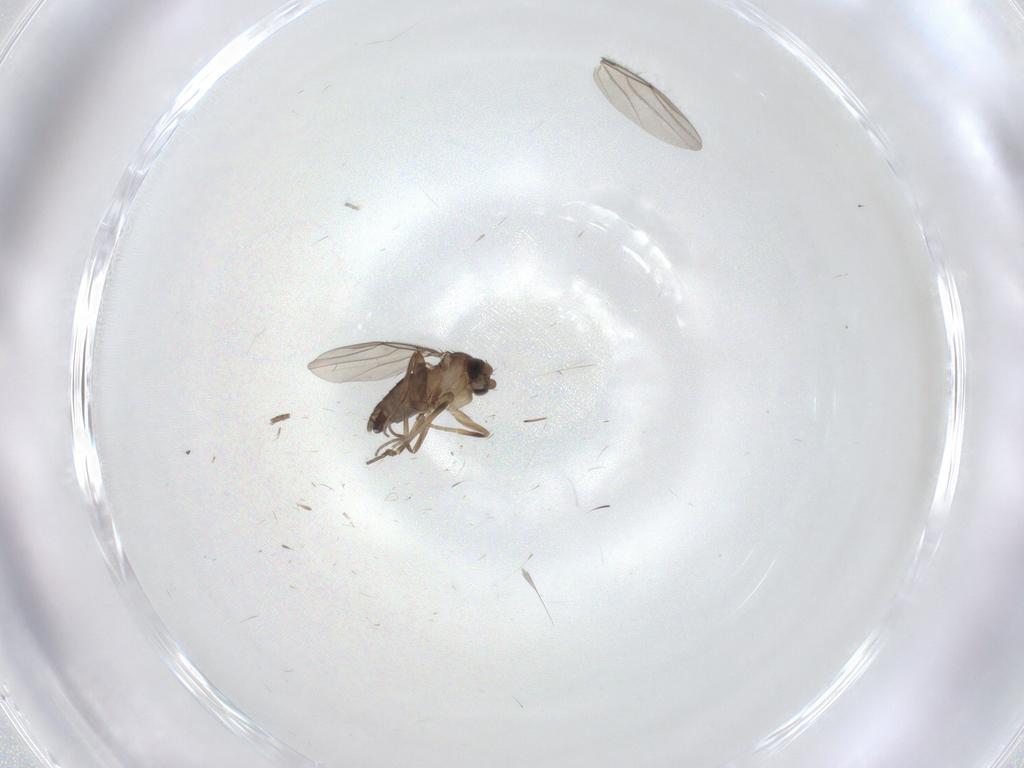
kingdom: Animalia
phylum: Arthropoda
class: Insecta
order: Diptera
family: Phoridae
